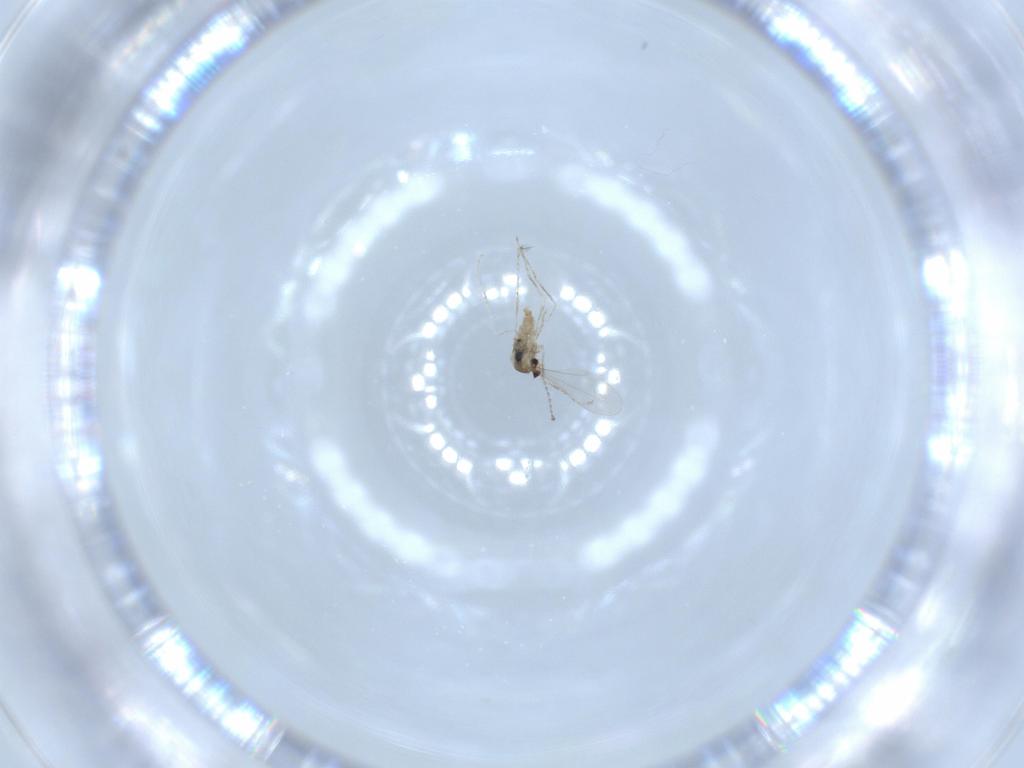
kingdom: Animalia
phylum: Arthropoda
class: Insecta
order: Diptera
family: Cecidomyiidae
